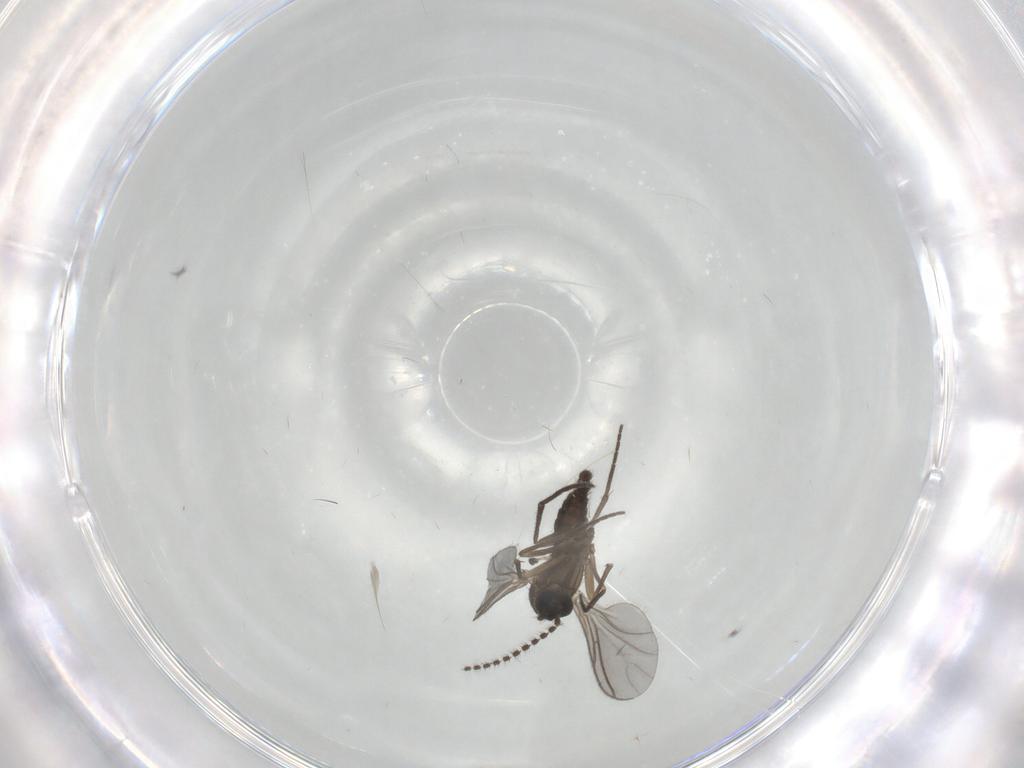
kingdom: Animalia
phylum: Arthropoda
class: Insecta
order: Diptera
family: Sciaridae
